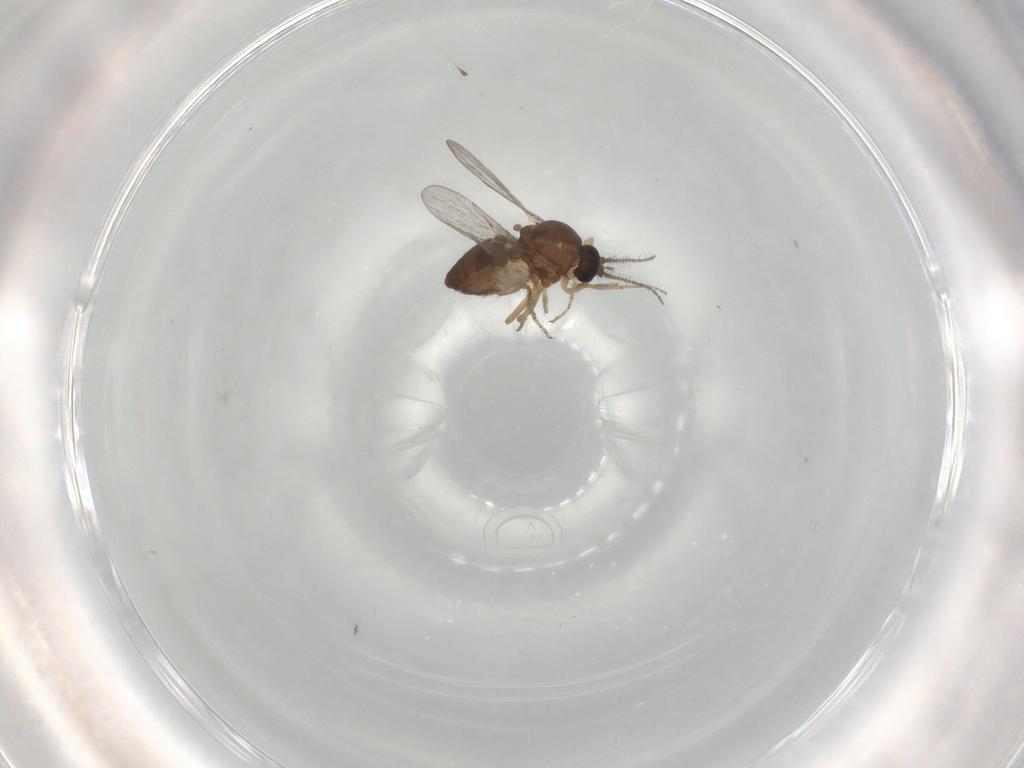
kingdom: Animalia
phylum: Arthropoda
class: Insecta
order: Diptera
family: Ceratopogonidae
